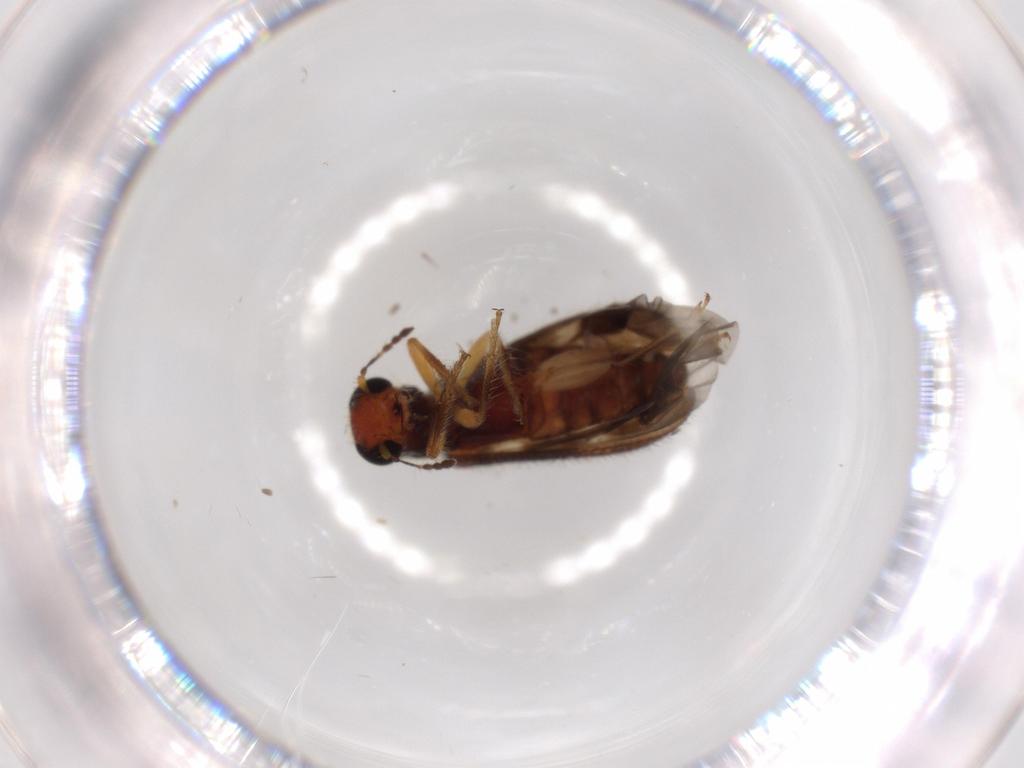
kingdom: Animalia
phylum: Arthropoda
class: Insecta
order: Coleoptera
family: Cleridae
